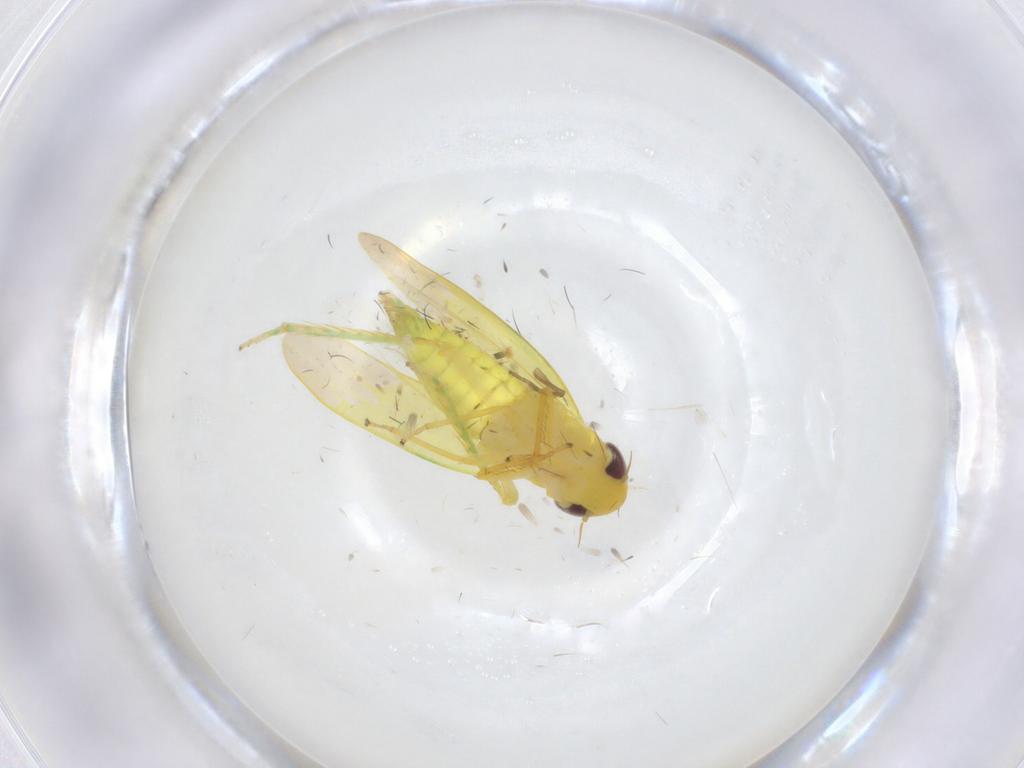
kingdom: Animalia
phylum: Arthropoda
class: Insecta
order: Hemiptera
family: Cicadellidae
